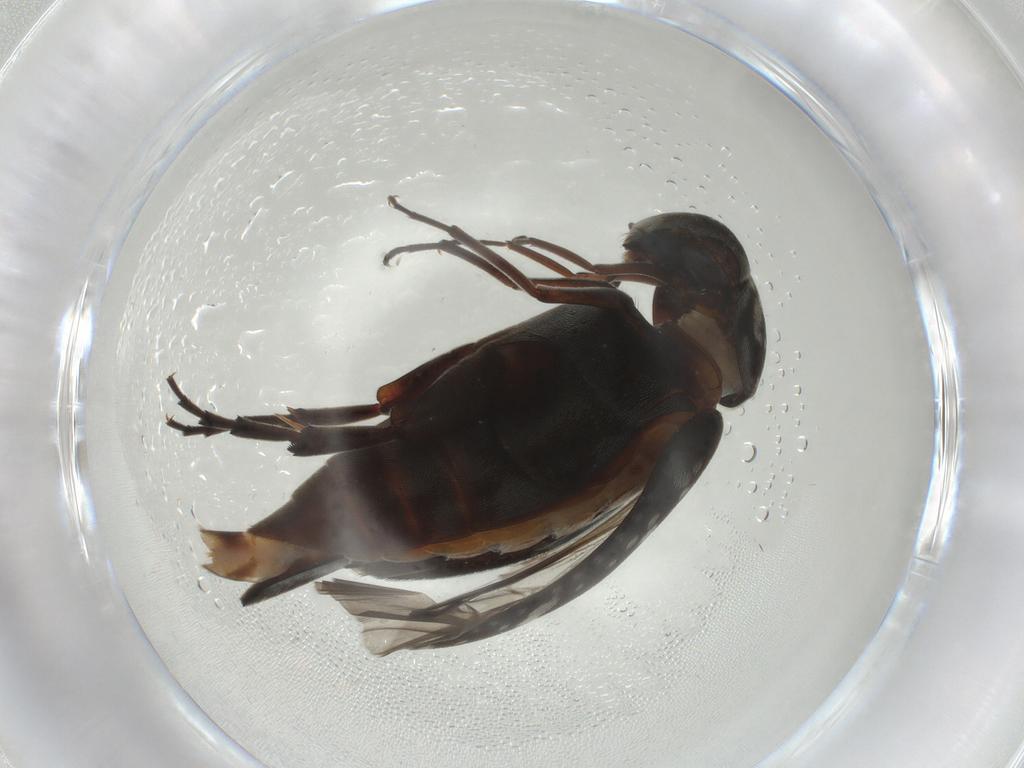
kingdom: Animalia
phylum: Arthropoda
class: Insecta
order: Coleoptera
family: Mordellidae
